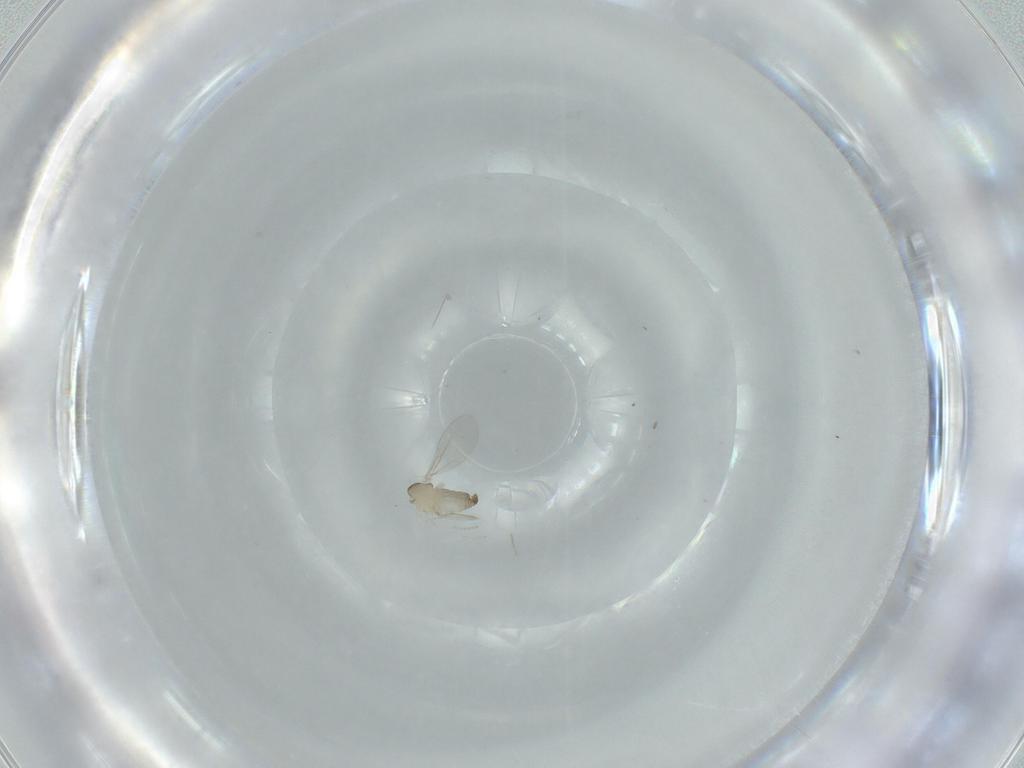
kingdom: Animalia
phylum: Arthropoda
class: Insecta
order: Diptera
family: Cecidomyiidae
